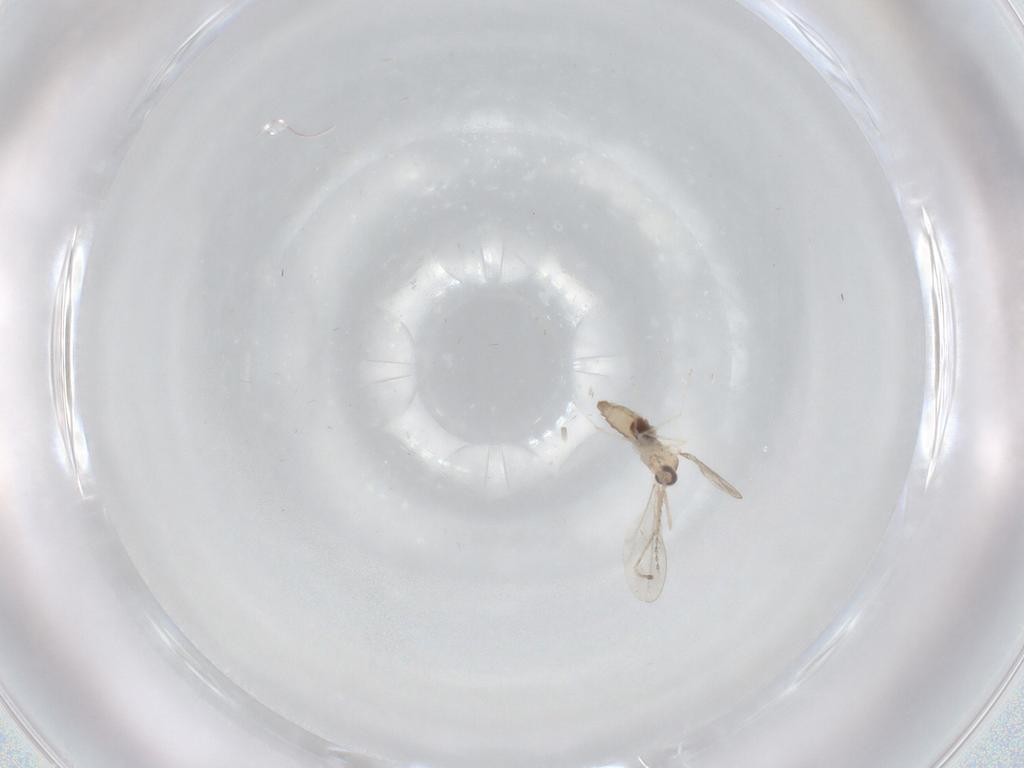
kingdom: Animalia
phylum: Arthropoda
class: Insecta
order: Diptera
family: Cecidomyiidae
